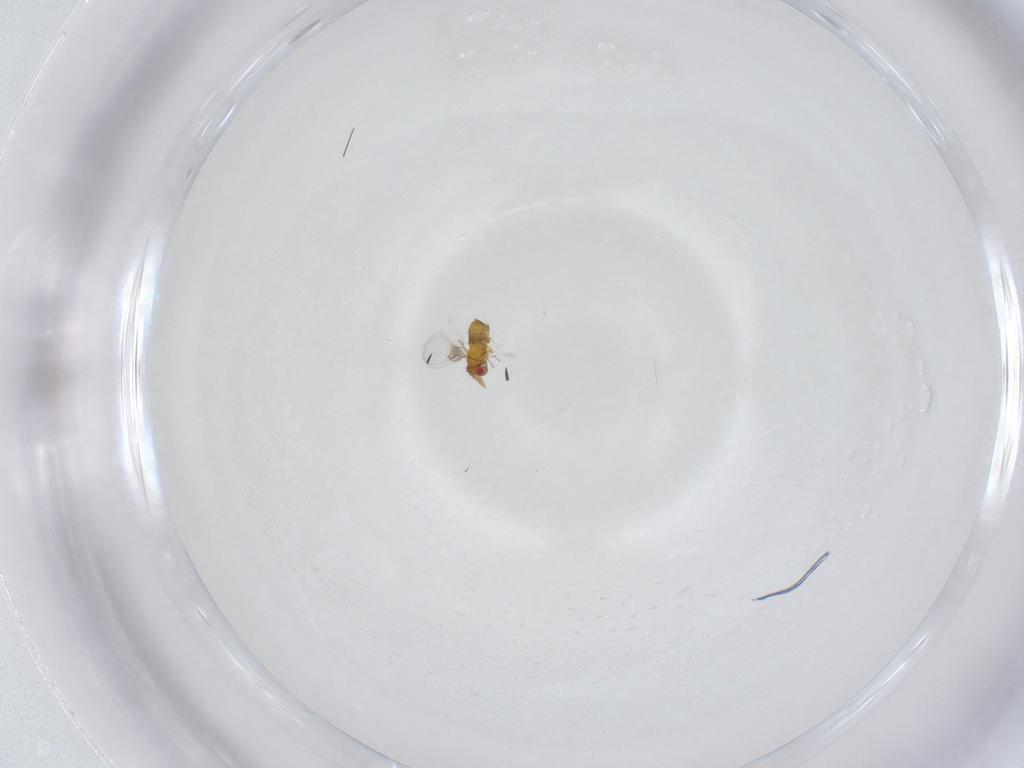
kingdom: Animalia
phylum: Arthropoda
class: Insecta
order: Hymenoptera
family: Trichogrammatidae
